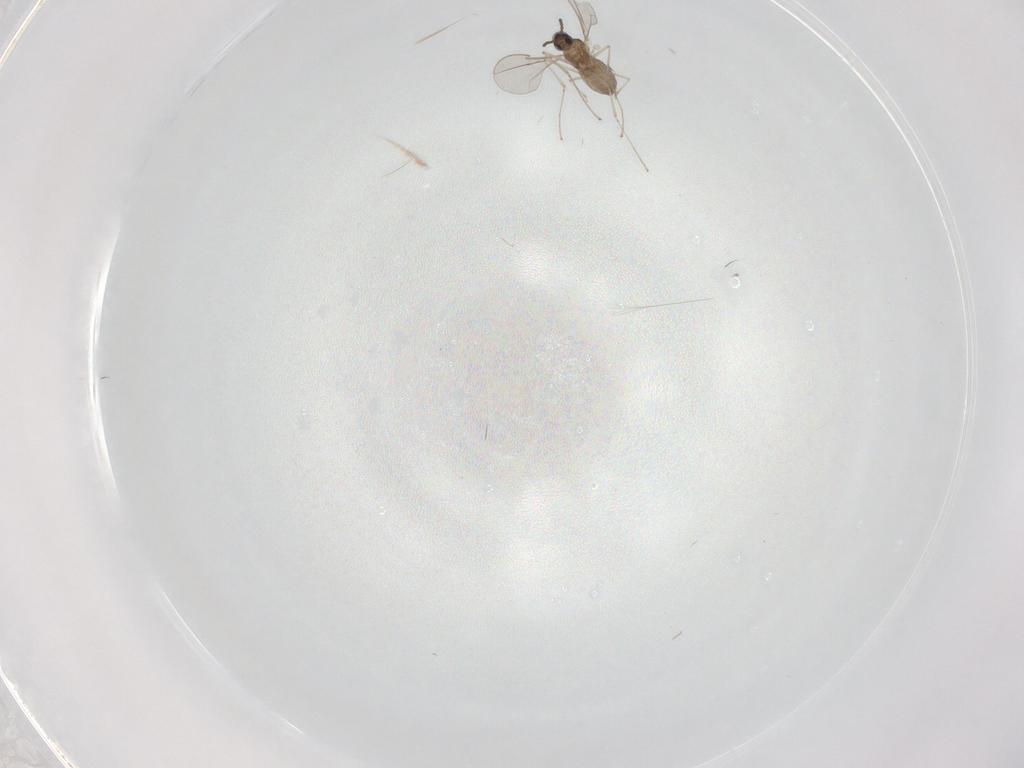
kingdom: Animalia
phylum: Arthropoda
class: Insecta
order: Diptera
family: Cecidomyiidae
